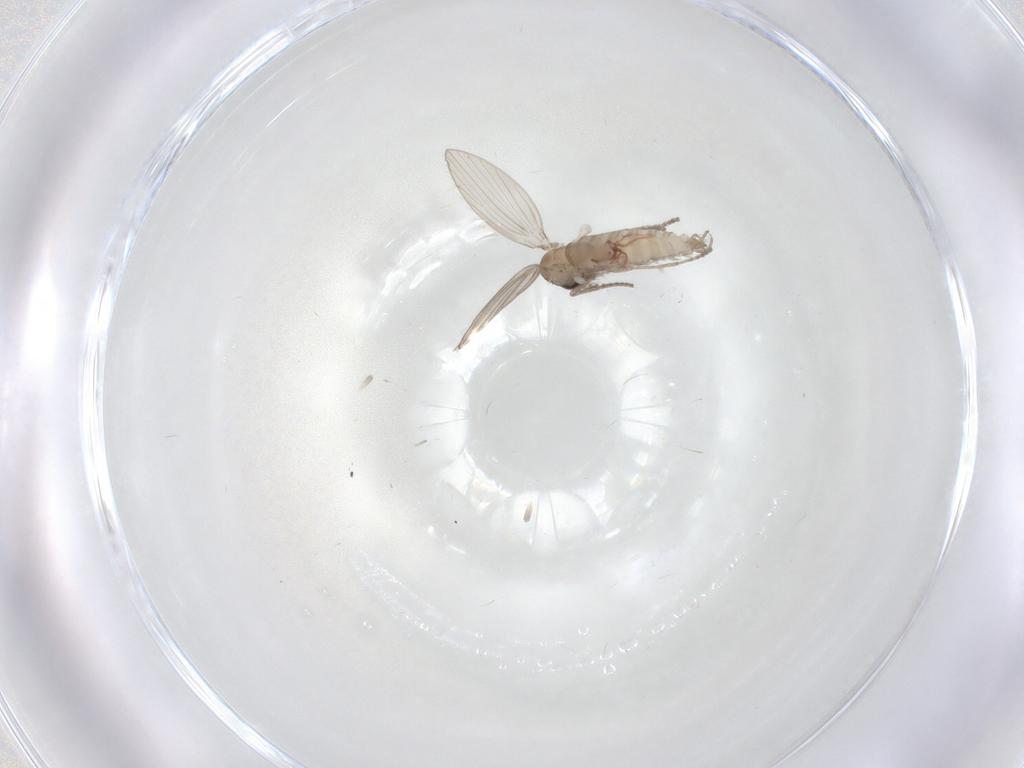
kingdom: Animalia
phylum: Arthropoda
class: Insecta
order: Diptera
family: Psychodidae
